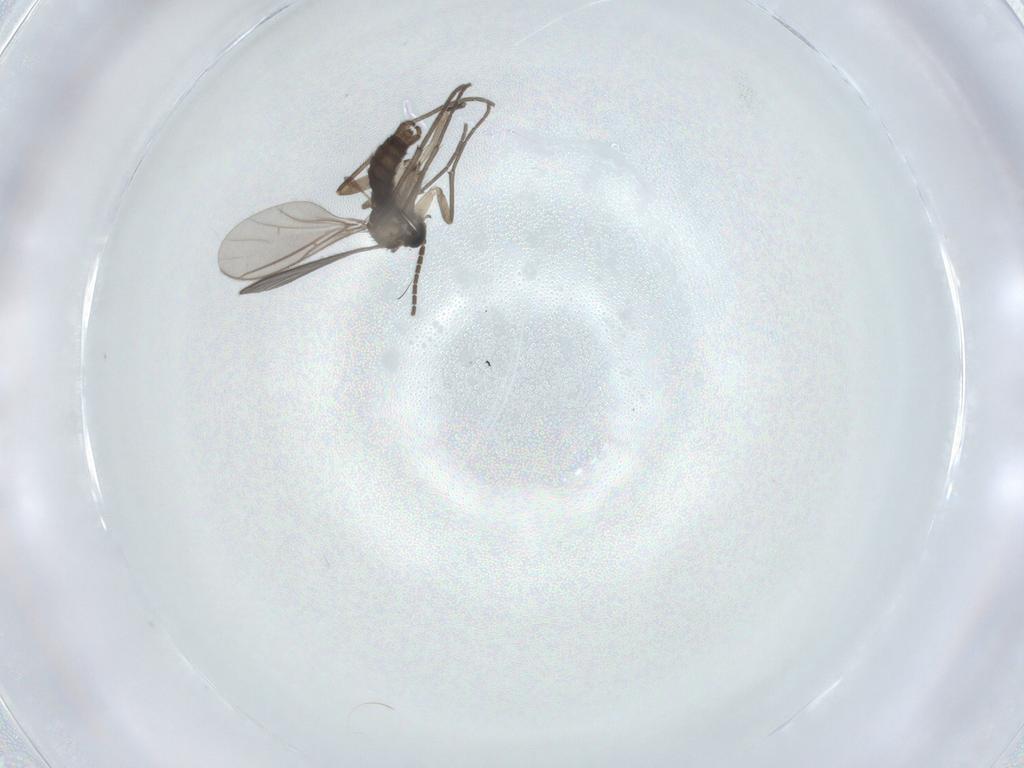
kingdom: Animalia
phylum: Arthropoda
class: Insecta
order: Diptera
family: Sciaridae
